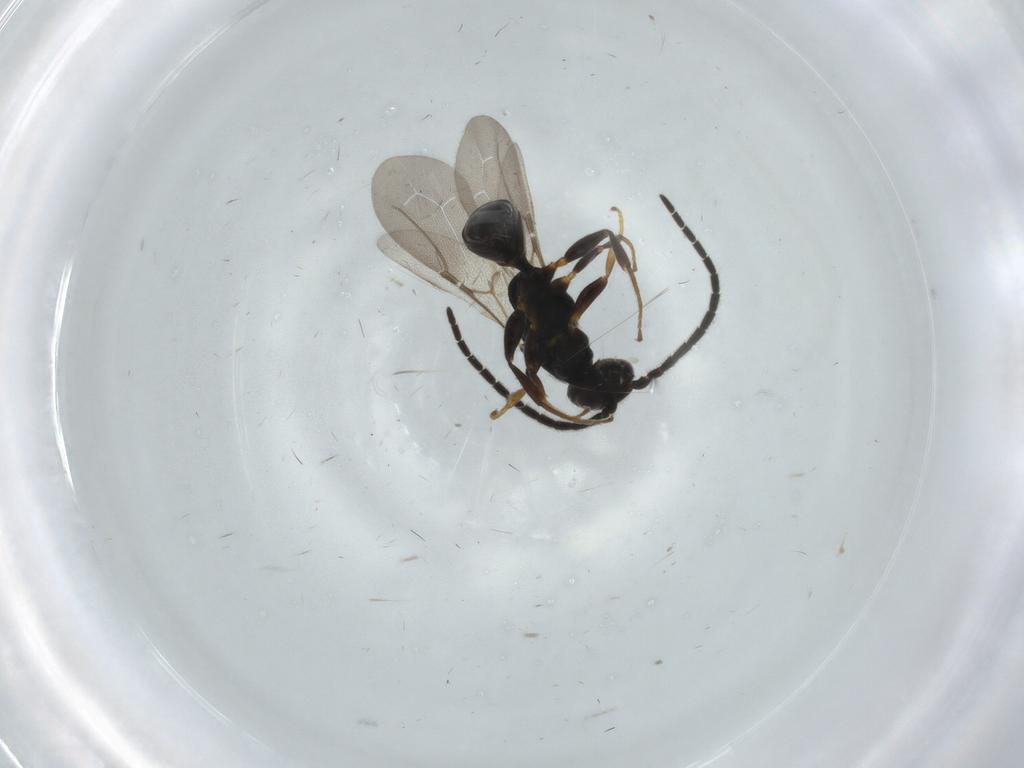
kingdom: Animalia
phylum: Arthropoda
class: Insecta
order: Hymenoptera
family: Bethylidae
